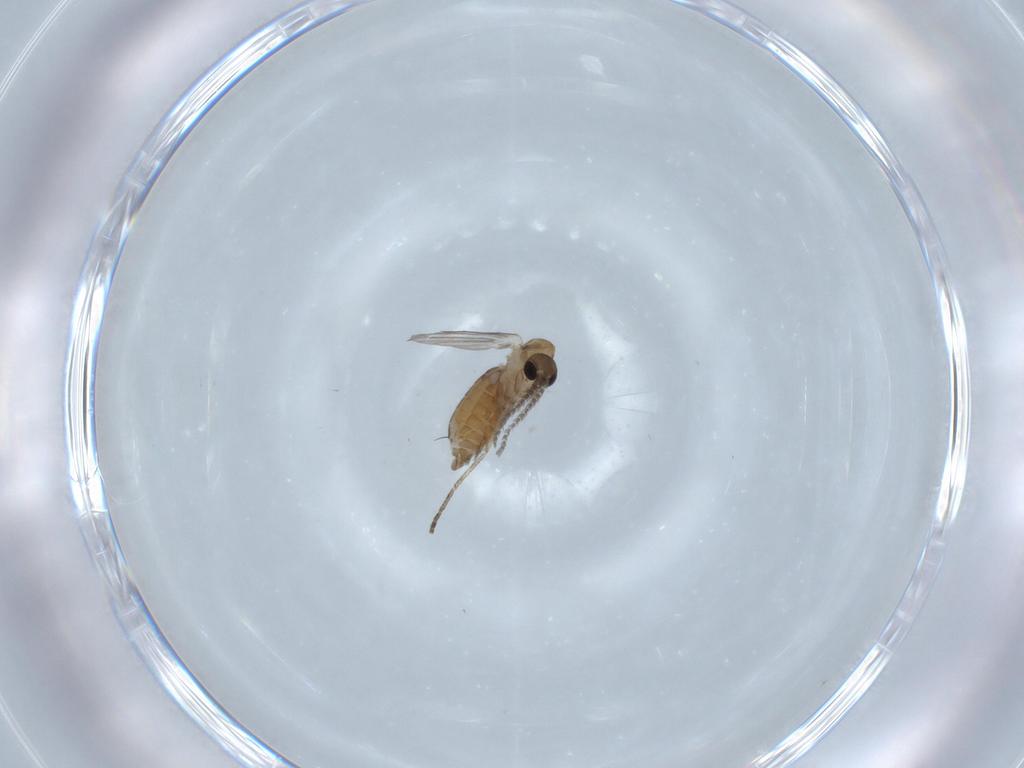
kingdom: Animalia
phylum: Arthropoda
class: Insecta
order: Diptera
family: Psychodidae
